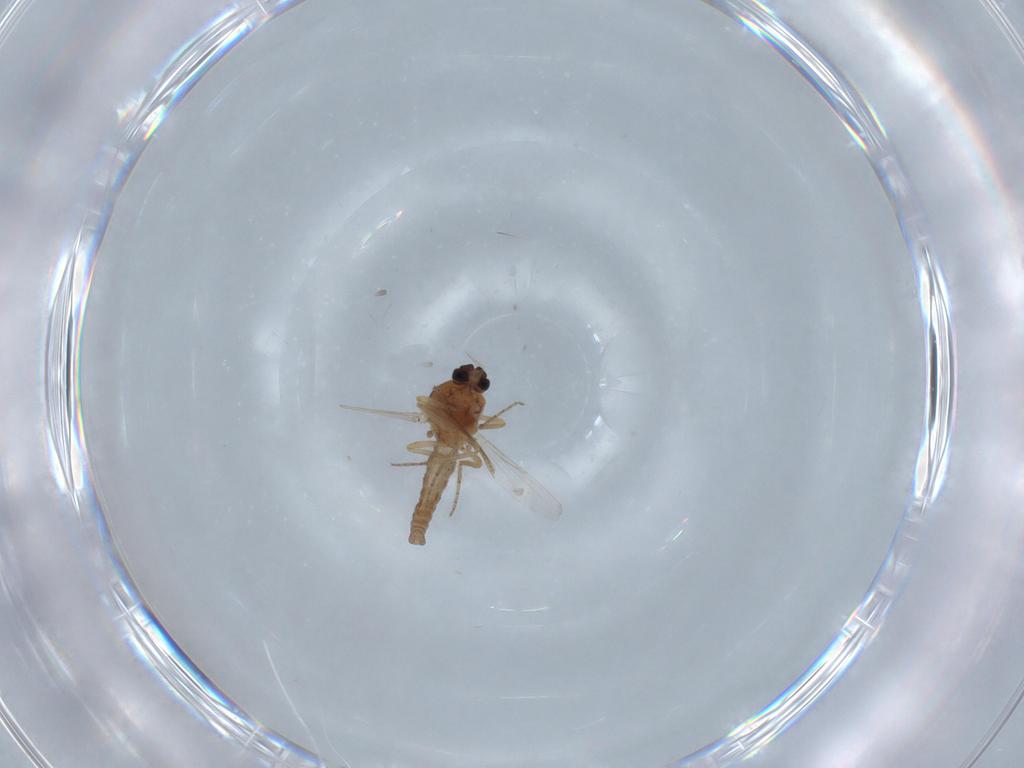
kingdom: Animalia
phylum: Arthropoda
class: Insecta
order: Diptera
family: Ceratopogonidae
